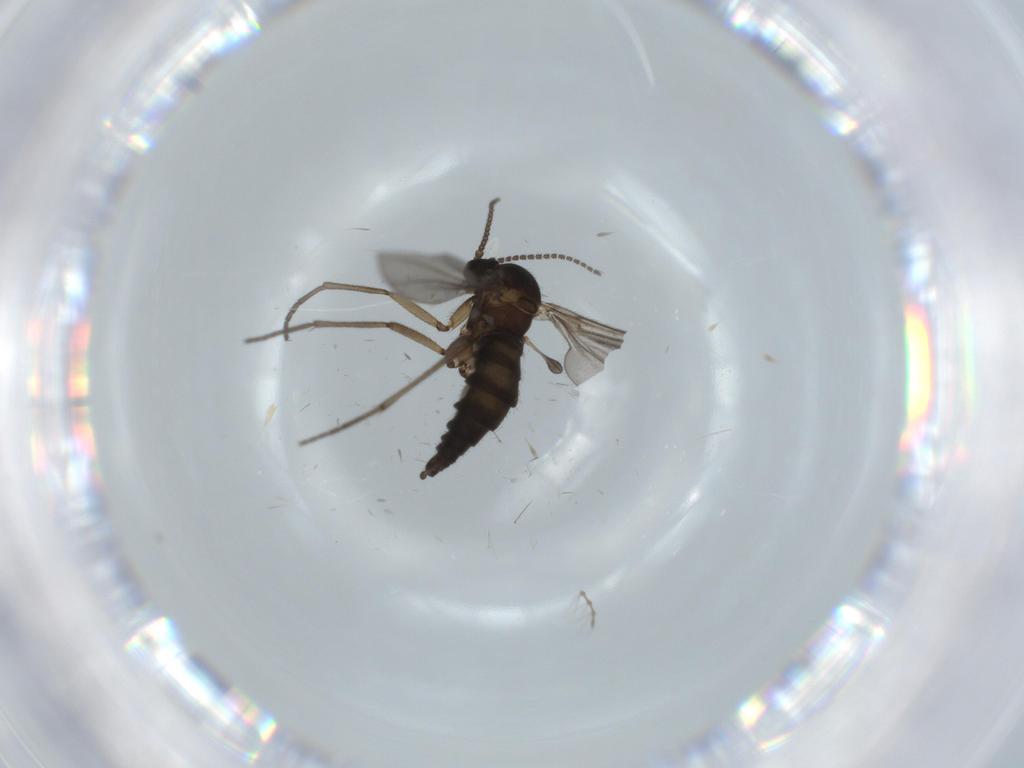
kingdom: Animalia
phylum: Arthropoda
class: Insecta
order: Diptera
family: Sciaridae
